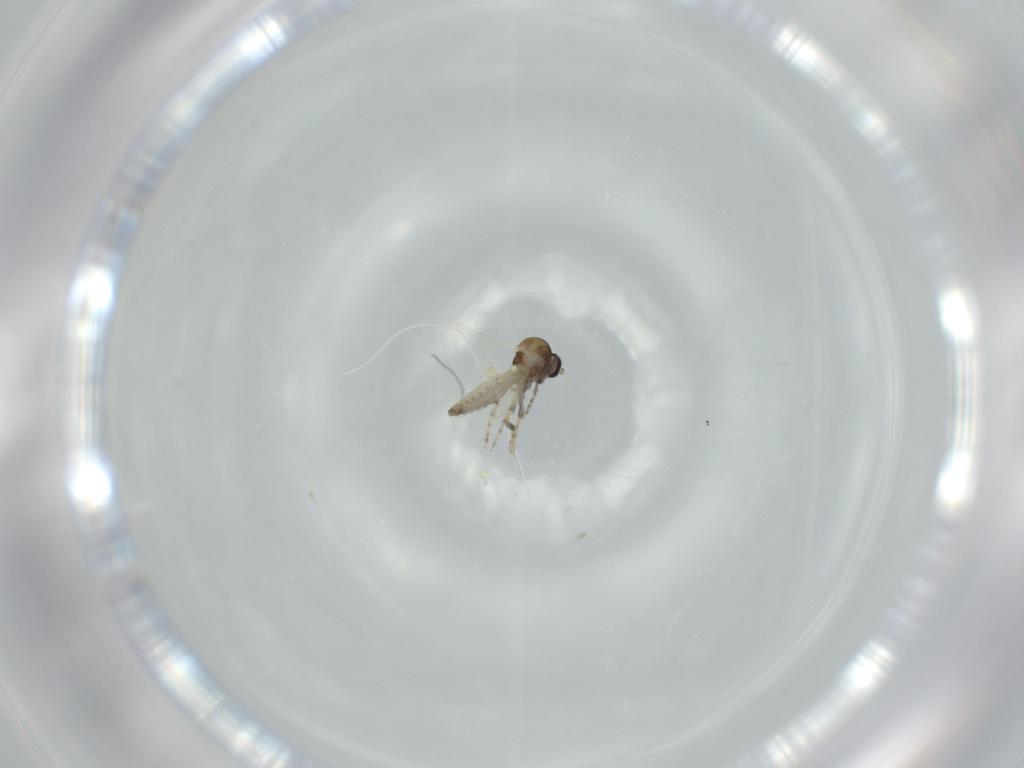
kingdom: Animalia
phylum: Arthropoda
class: Insecta
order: Diptera
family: Ceratopogonidae
